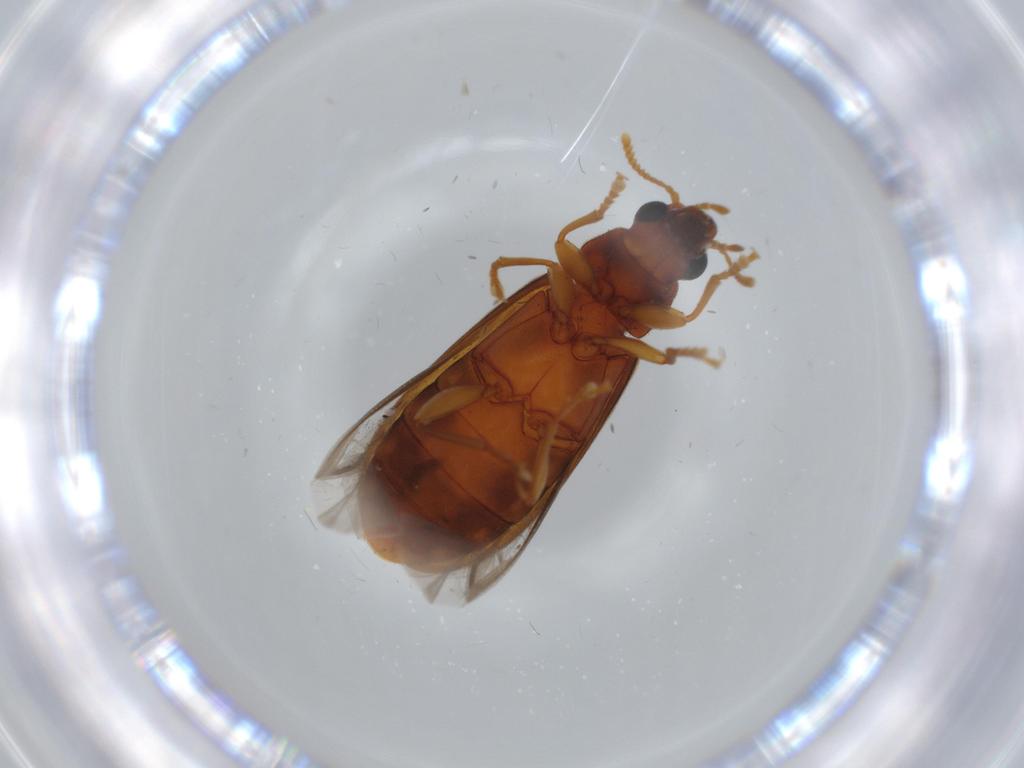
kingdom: Animalia
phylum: Arthropoda
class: Insecta
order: Coleoptera
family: Mycteridae
